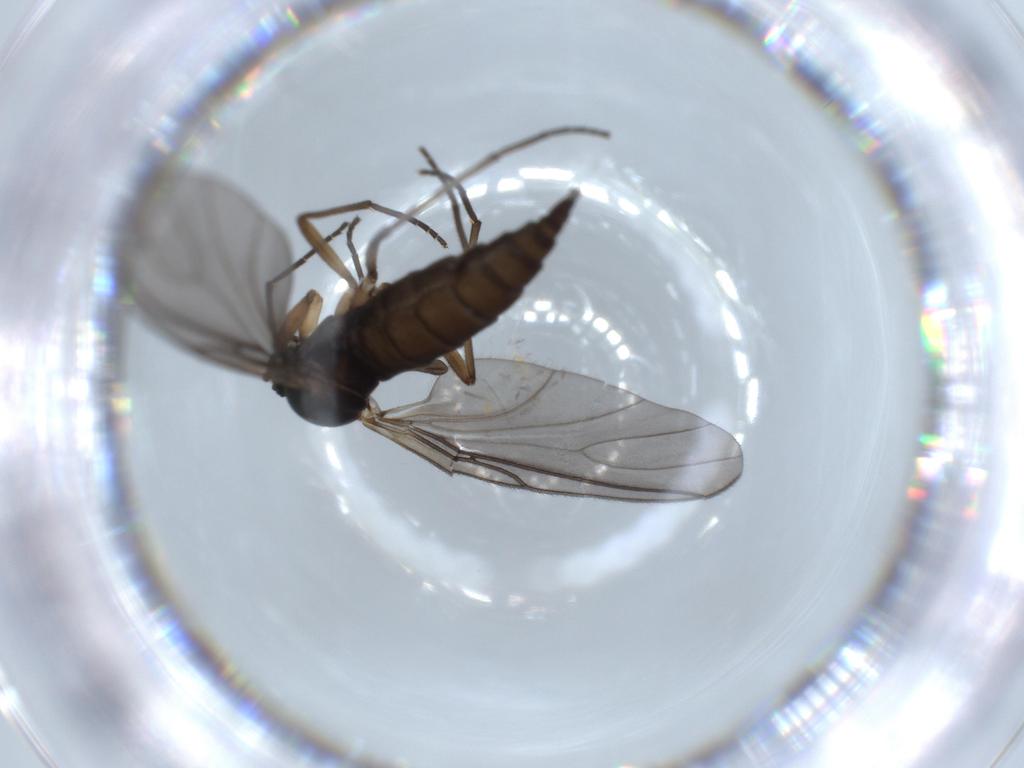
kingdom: Animalia
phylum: Arthropoda
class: Insecta
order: Diptera
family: Sciaridae
